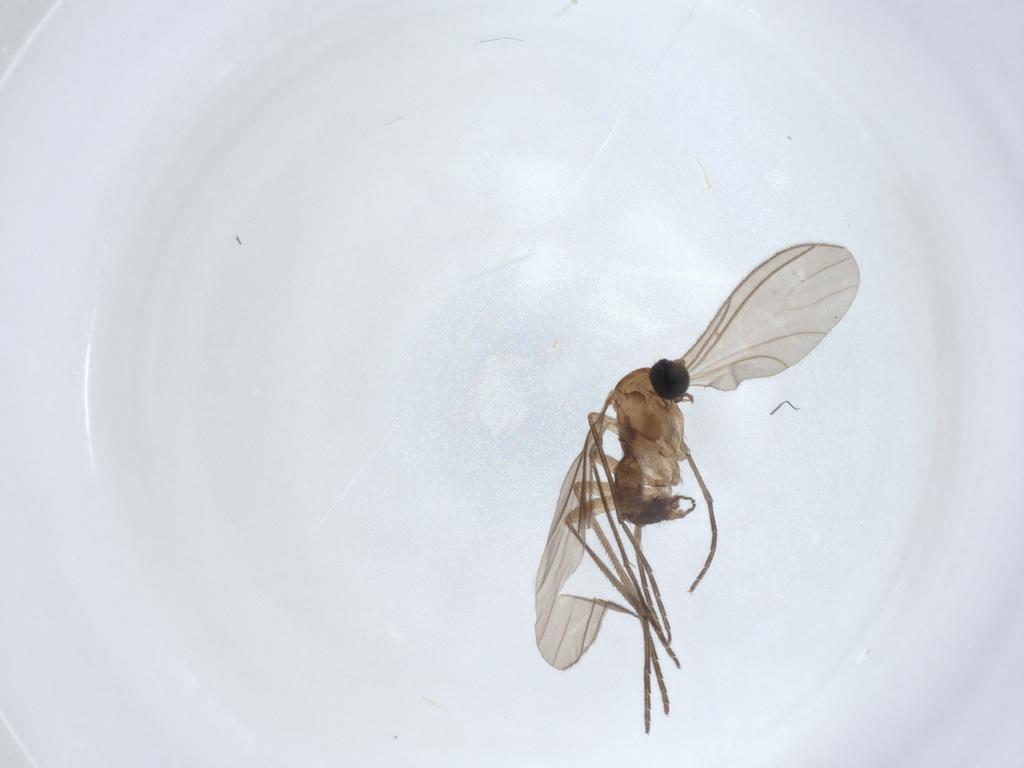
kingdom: Animalia
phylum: Arthropoda
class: Insecta
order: Diptera
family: Sciaridae
